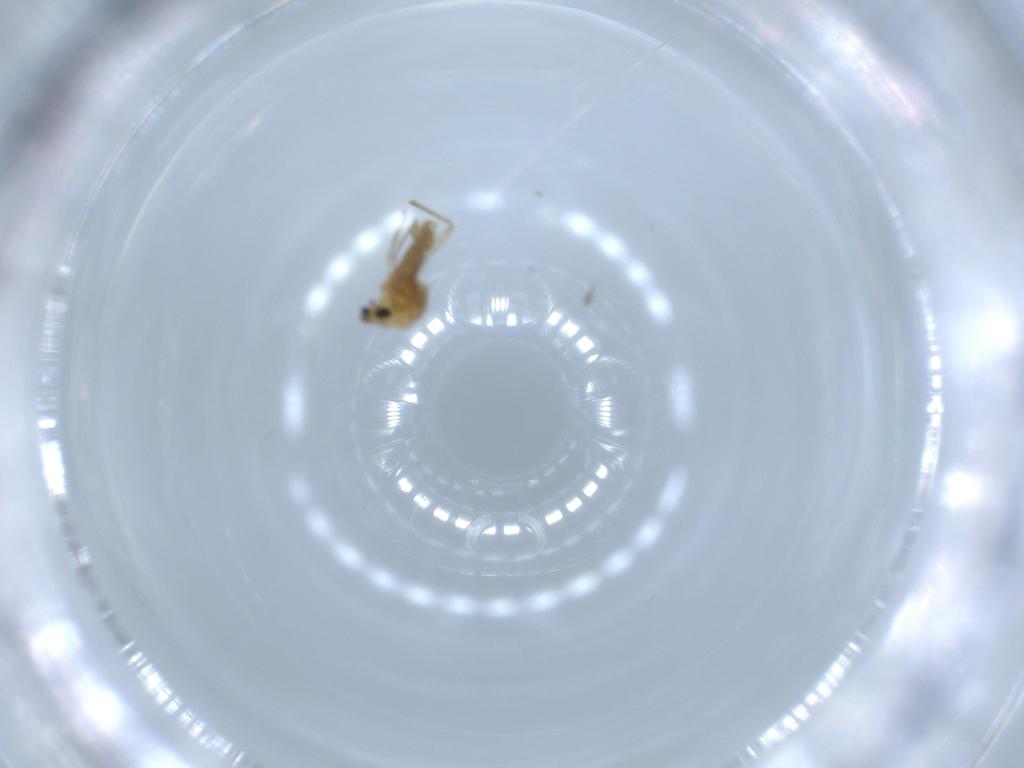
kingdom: Animalia
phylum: Arthropoda
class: Insecta
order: Diptera
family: Chironomidae
